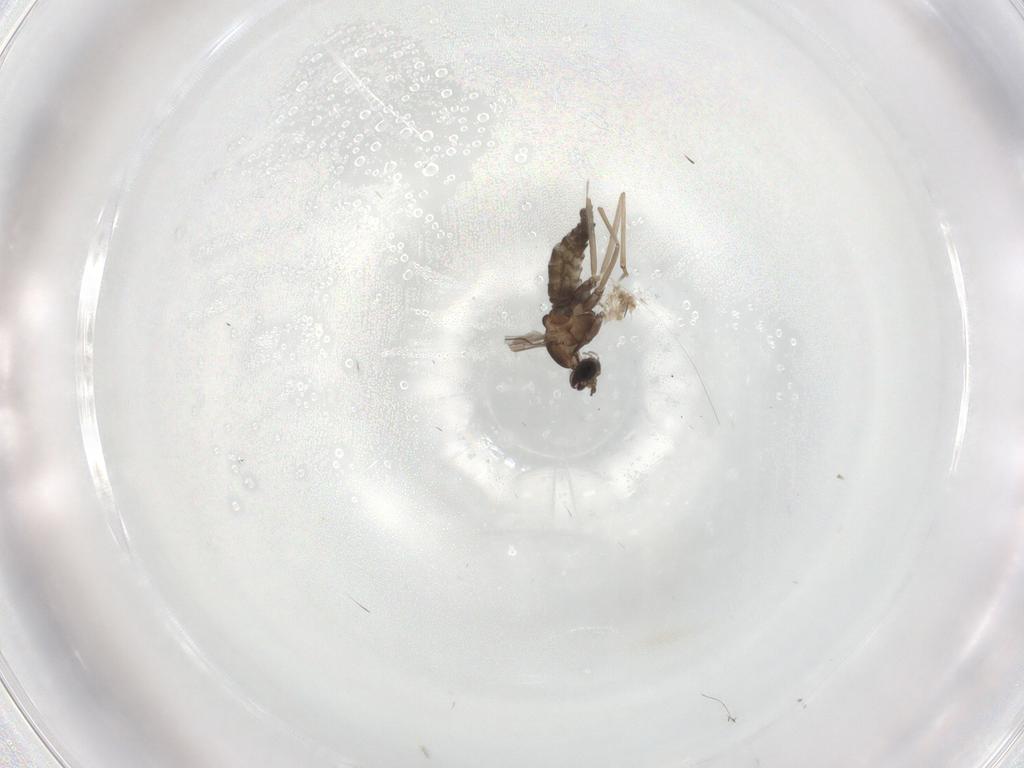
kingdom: Animalia
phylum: Arthropoda
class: Insecta
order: Diptera
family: Cecidomyiidae
